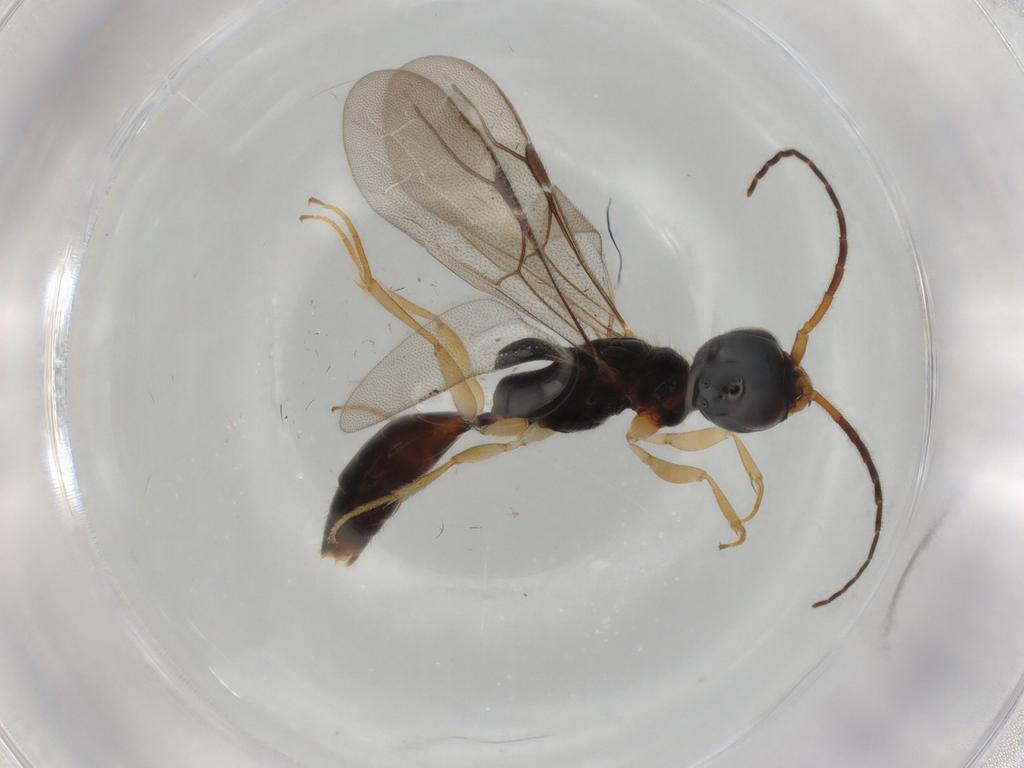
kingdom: Animalia
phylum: Arthropoda
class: Insecta
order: Hymenoptera
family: Bethylidae
